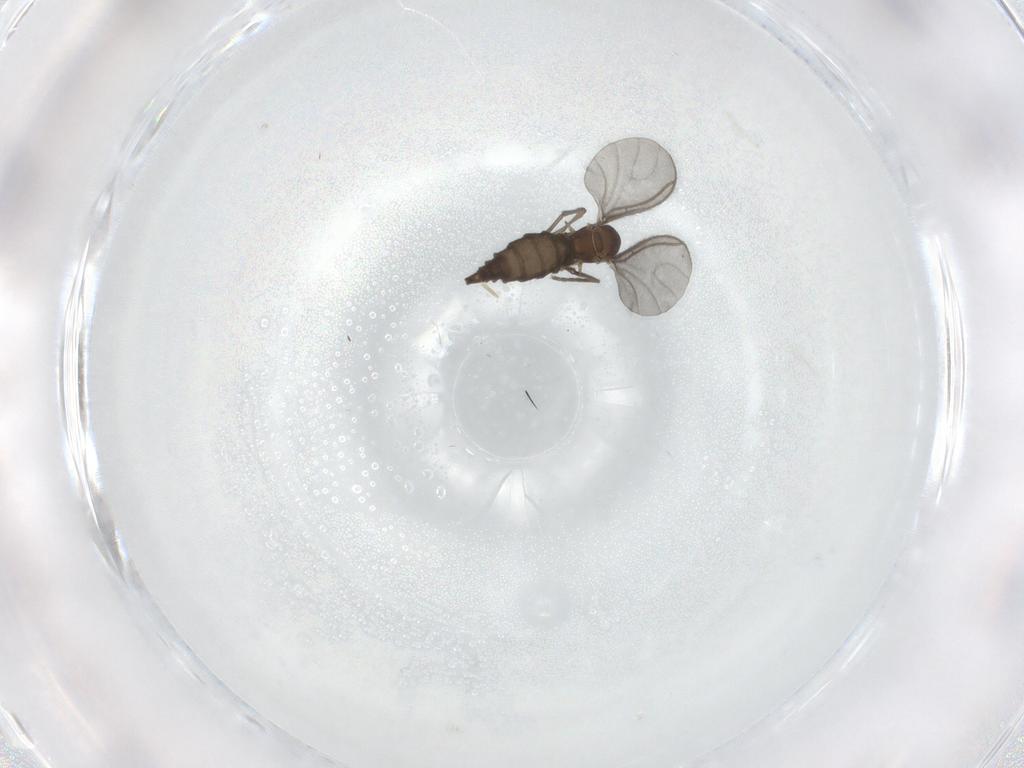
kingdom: Animalia
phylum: Arthropoda
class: Insecta
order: Diptera
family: Sciaridae
